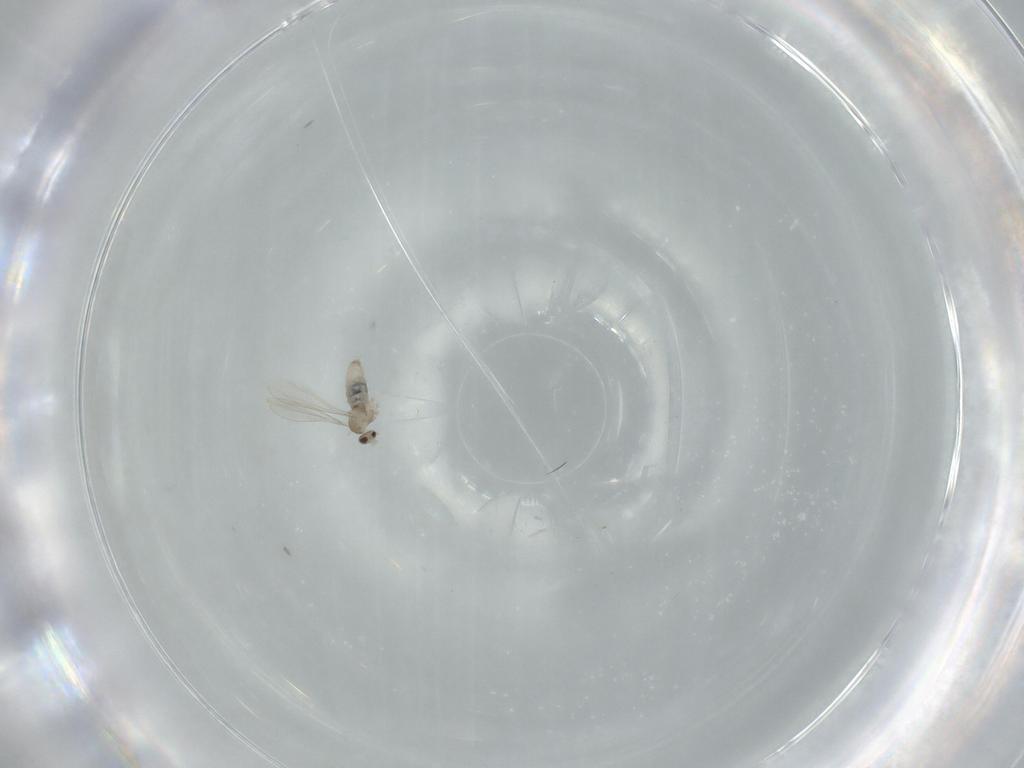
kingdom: Animalia
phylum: Arthropoda
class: Insecta
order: Diptera
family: Cecidomyiidae
